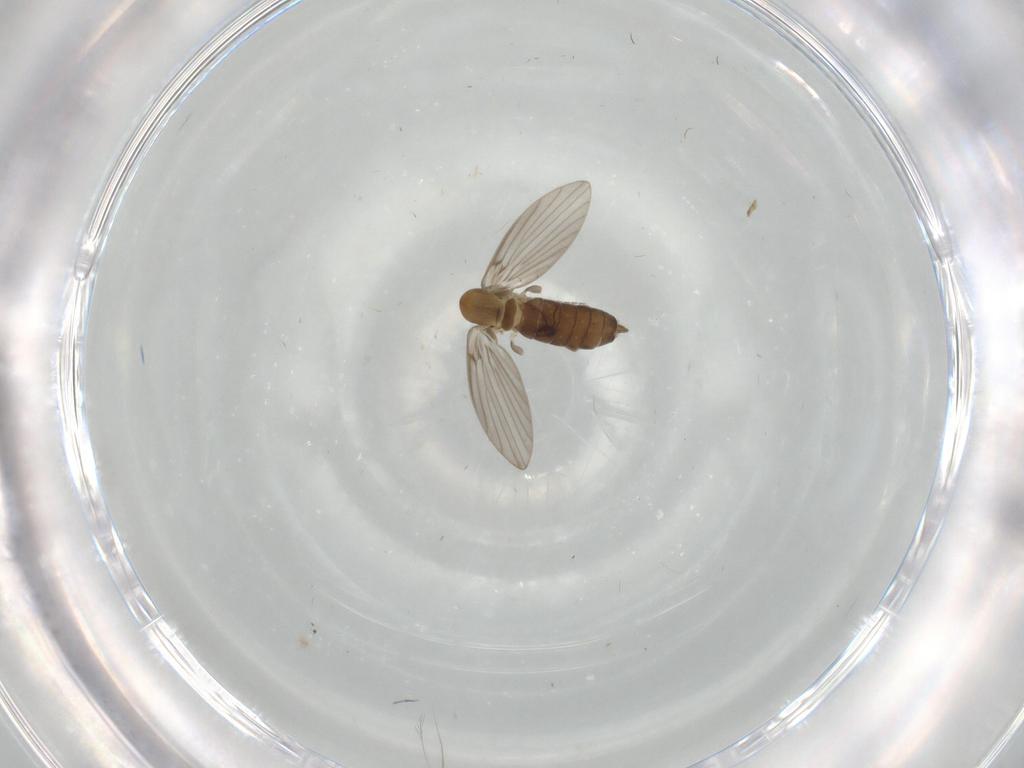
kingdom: Animalia
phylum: Arthropoda
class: Insecta
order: Diptera
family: Psychodidae
